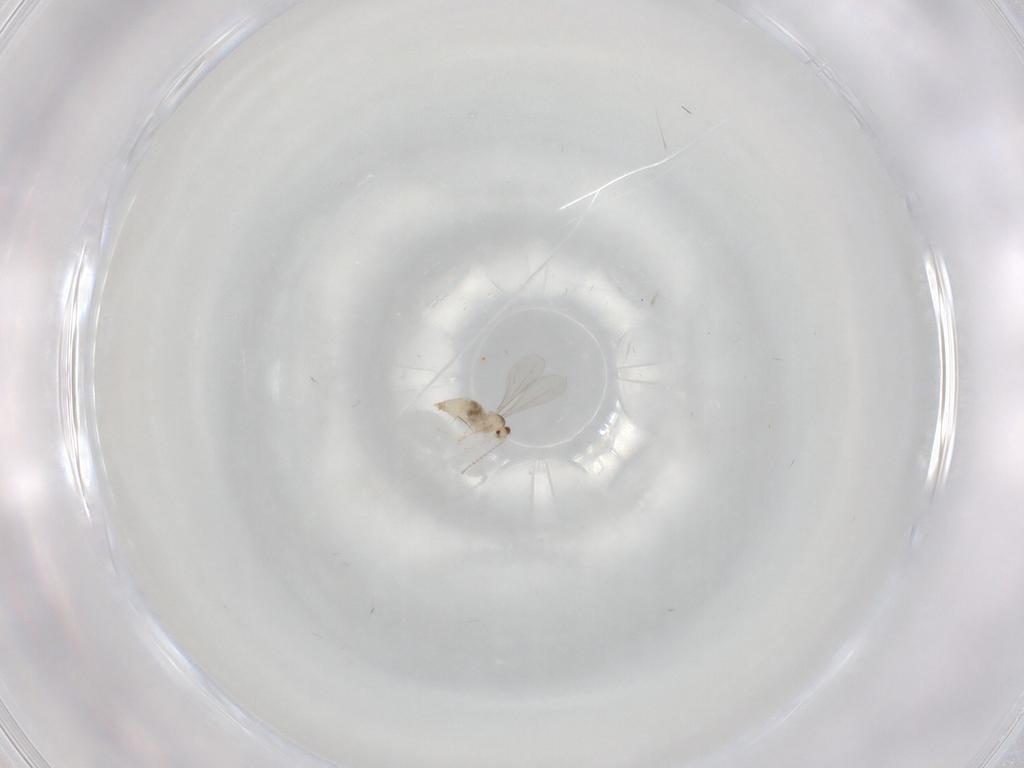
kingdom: Animalia
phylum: Arthropoda
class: Insecta
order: Diptera
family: Cecidomyiidae
